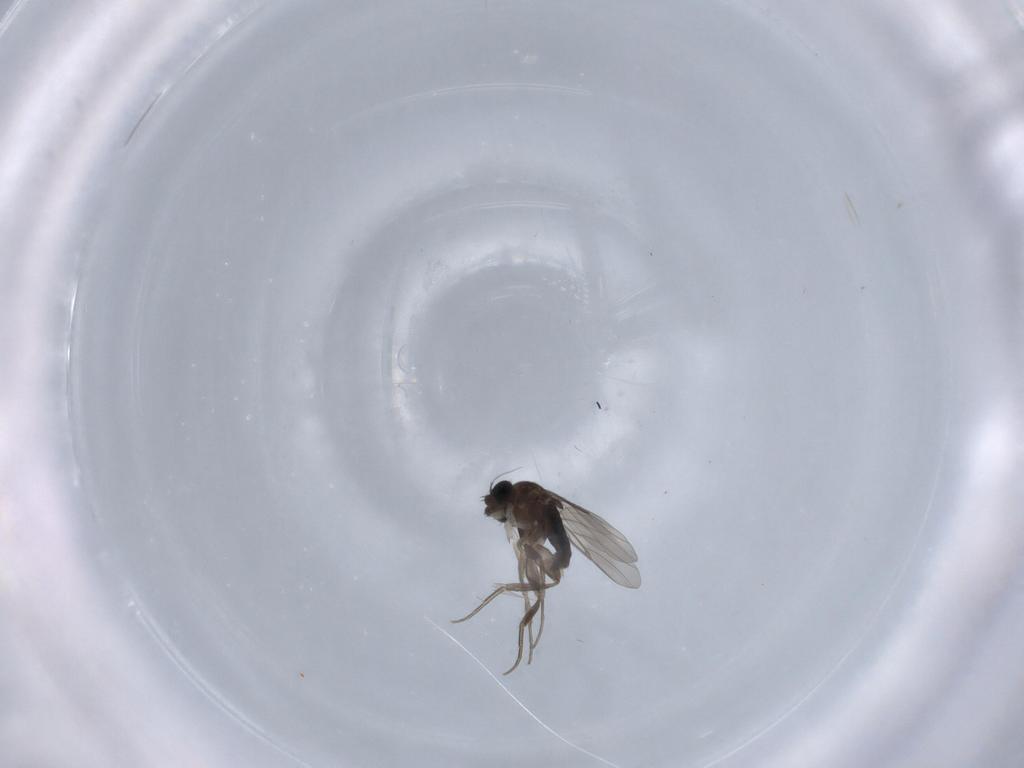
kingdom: Animalia
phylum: Arthropoda
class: Insecta
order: Diptera
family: Phoridae
